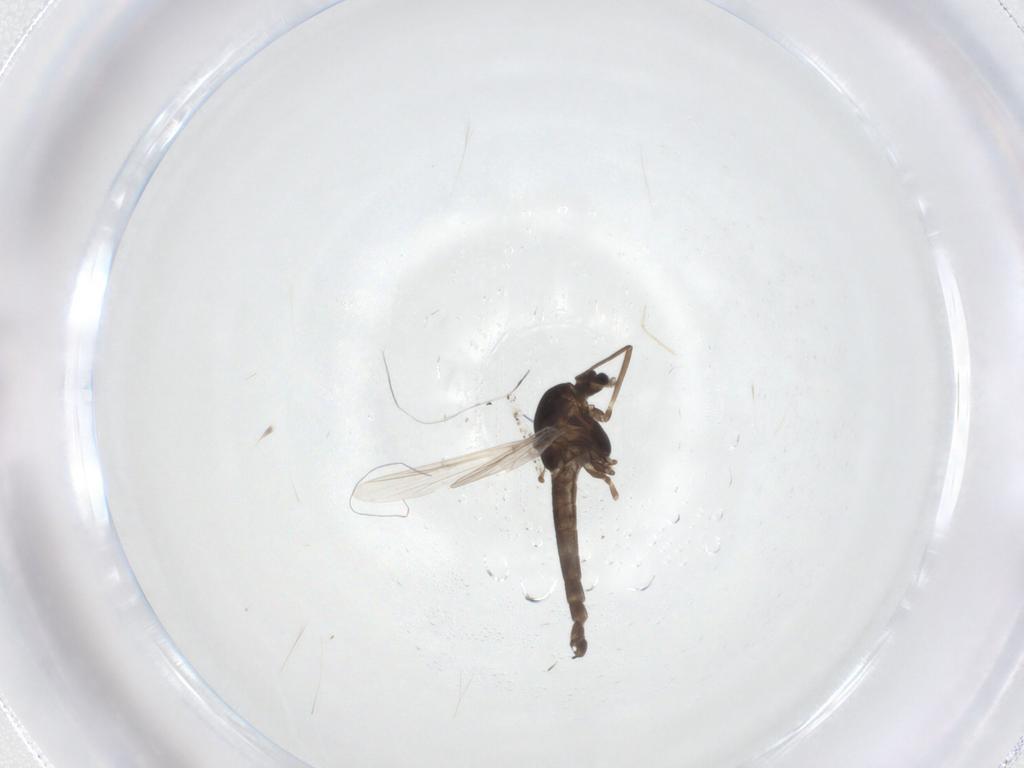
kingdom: Animalia
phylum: Arthropoda
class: Insecta
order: Diptera
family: Chironomidae
